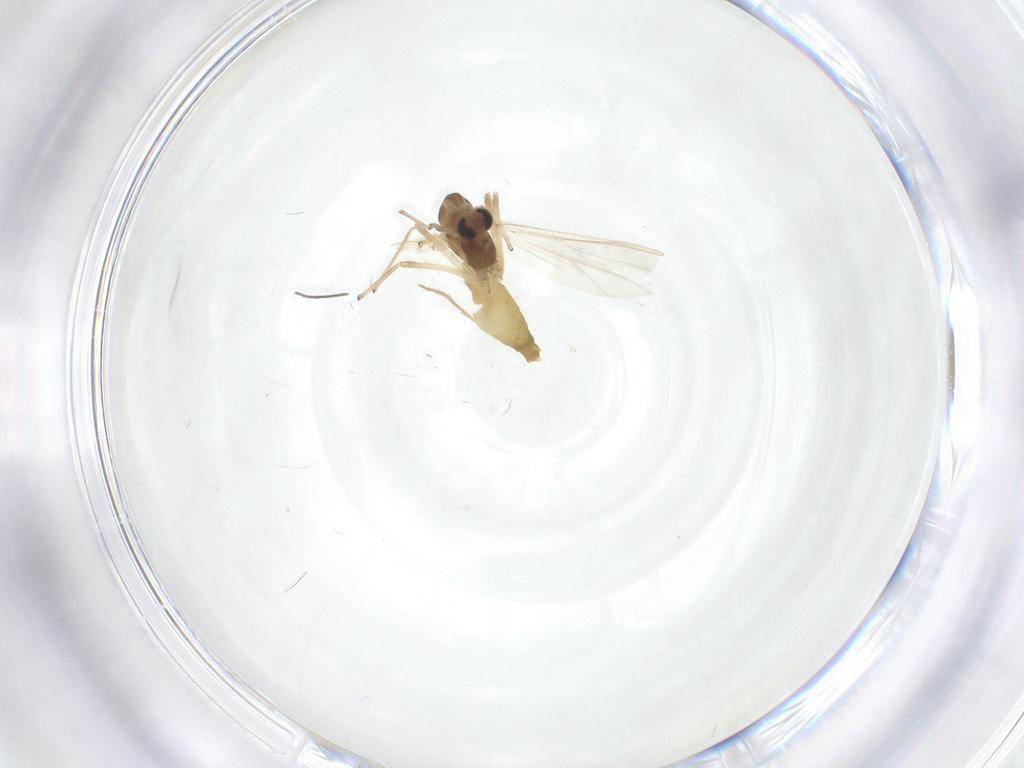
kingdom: Animalia
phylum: Arthropoda
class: Insecta
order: Diptera
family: Chironomidae
